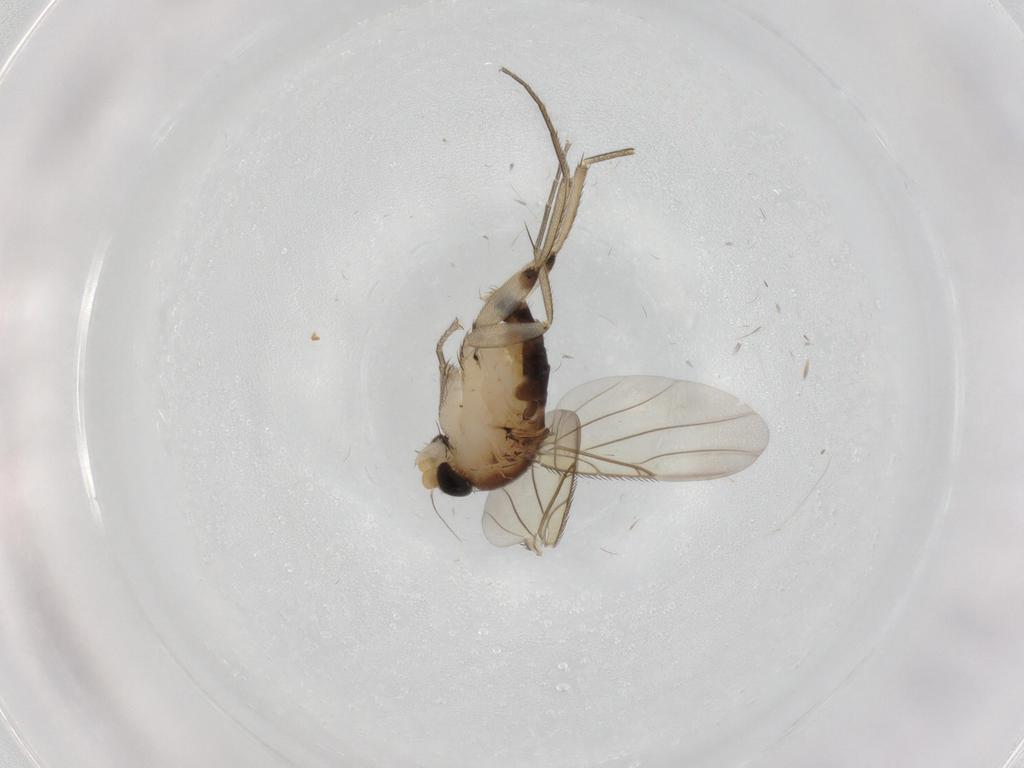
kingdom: Animalia
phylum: Arthropoda
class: Insecta
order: Diptera
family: Phoridae
